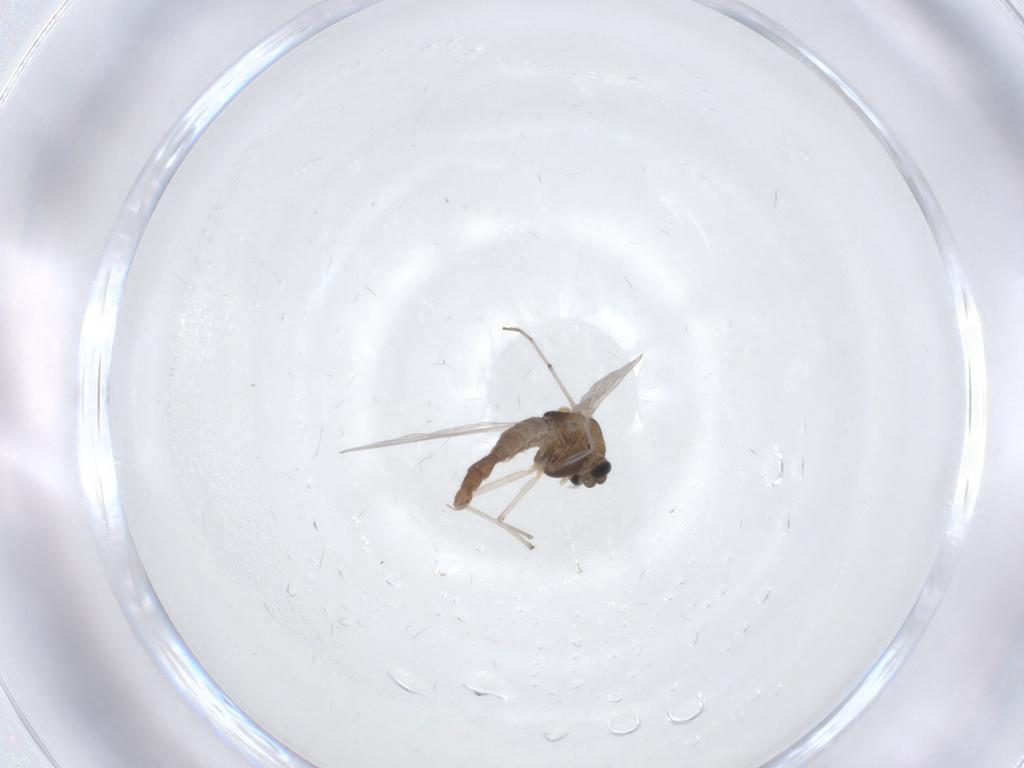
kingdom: Animalia
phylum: Arthropoda
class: Insecta
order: Diptera
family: Chironomidae
